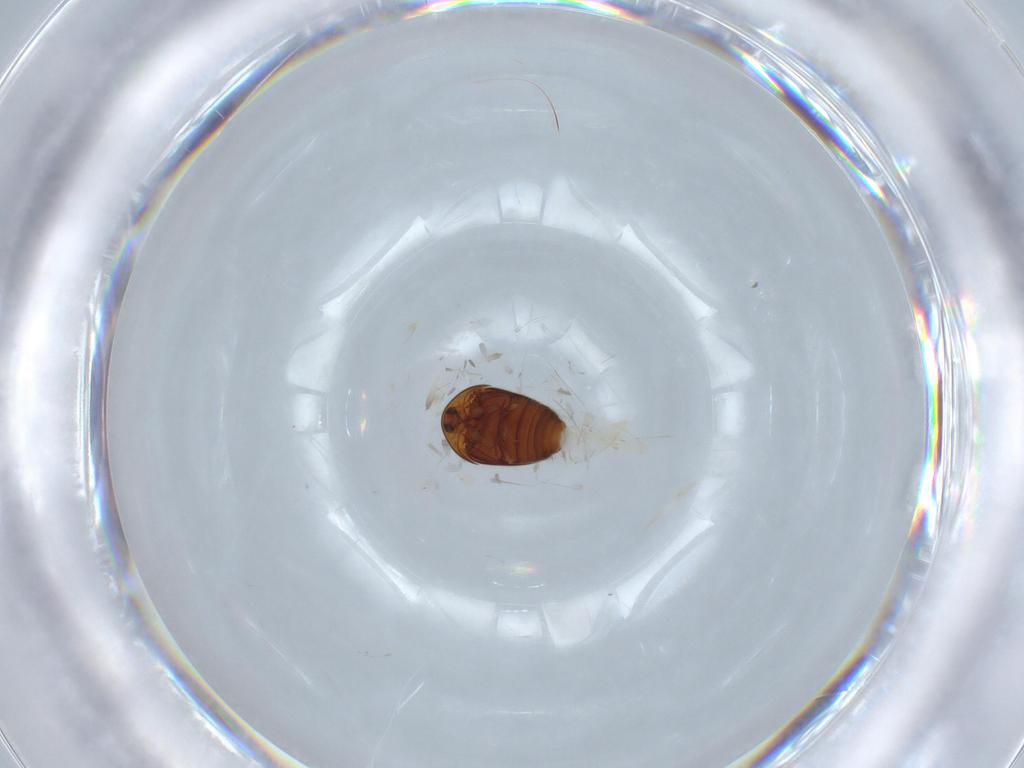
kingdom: Animalia
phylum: Arthropoda
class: Insecta
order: Coleoptera
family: Corylophidae
